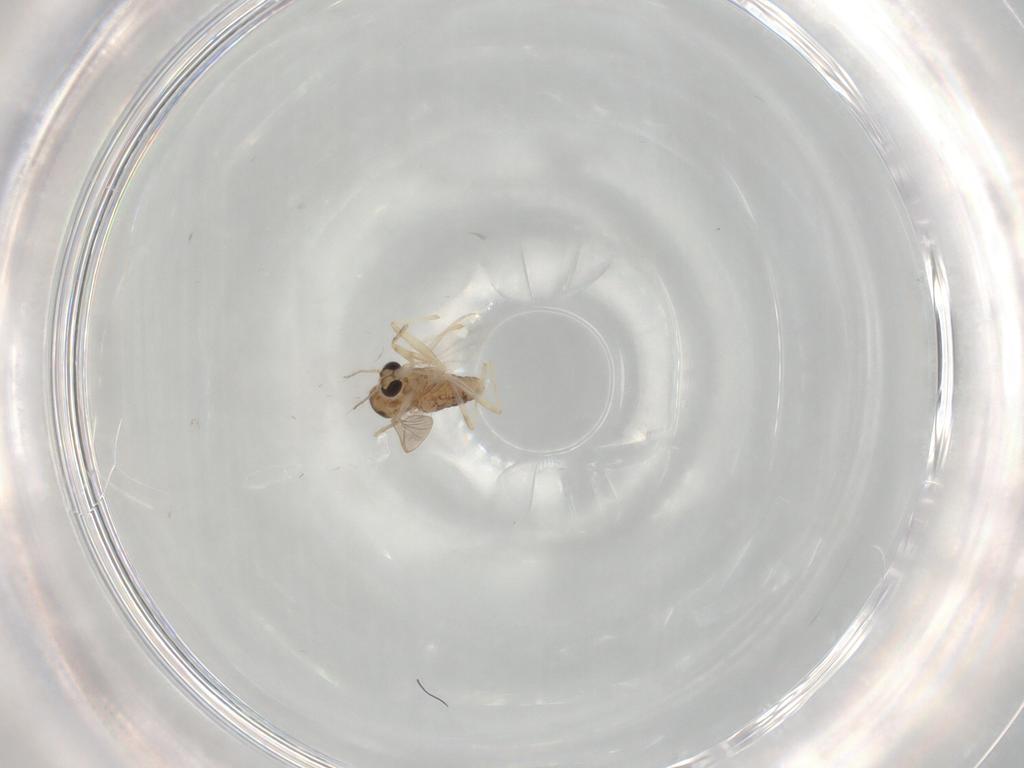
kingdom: Animalia
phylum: Arthropoda
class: Insecta
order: Diptera
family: Chironomidae
